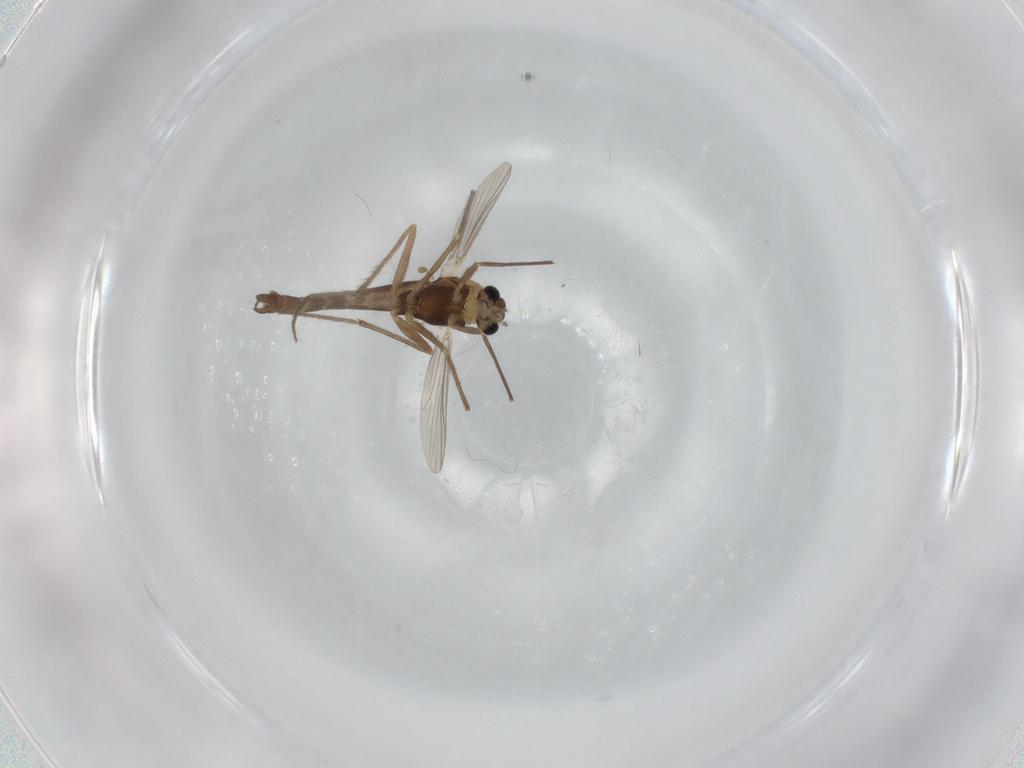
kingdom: Animalia
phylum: Arthropoda
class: Insecta
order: Diptera
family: Chironomidae
